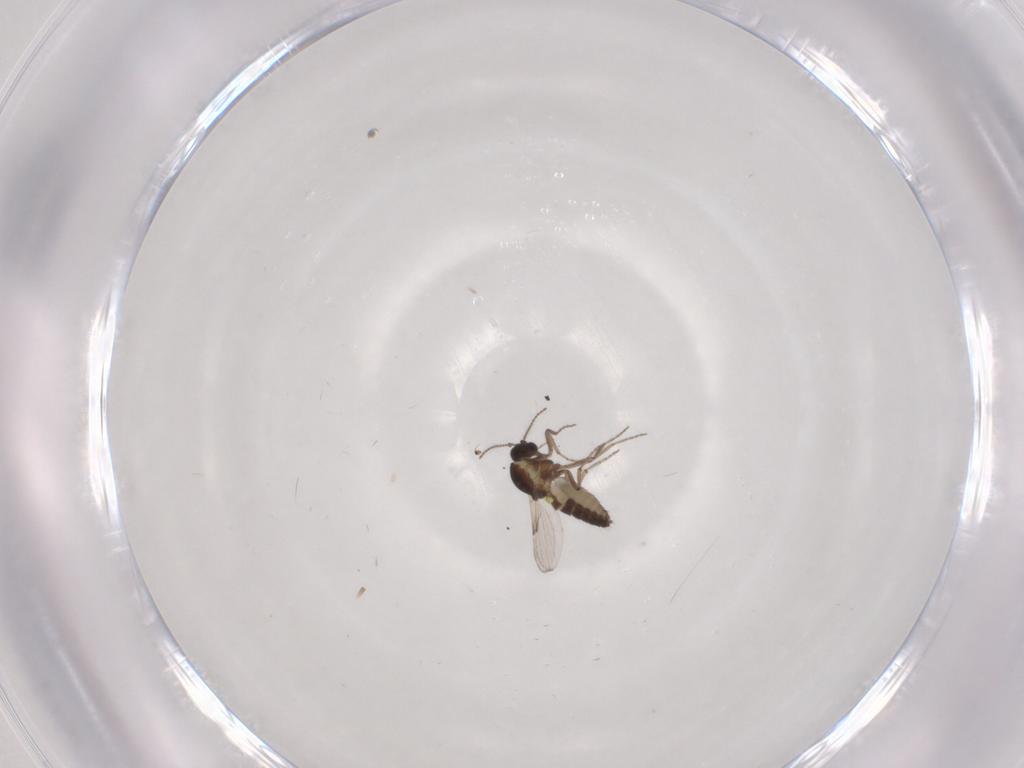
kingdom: Animalia
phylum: Arthropoda
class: Insecta
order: Diptera
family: Ceratopogonidae
